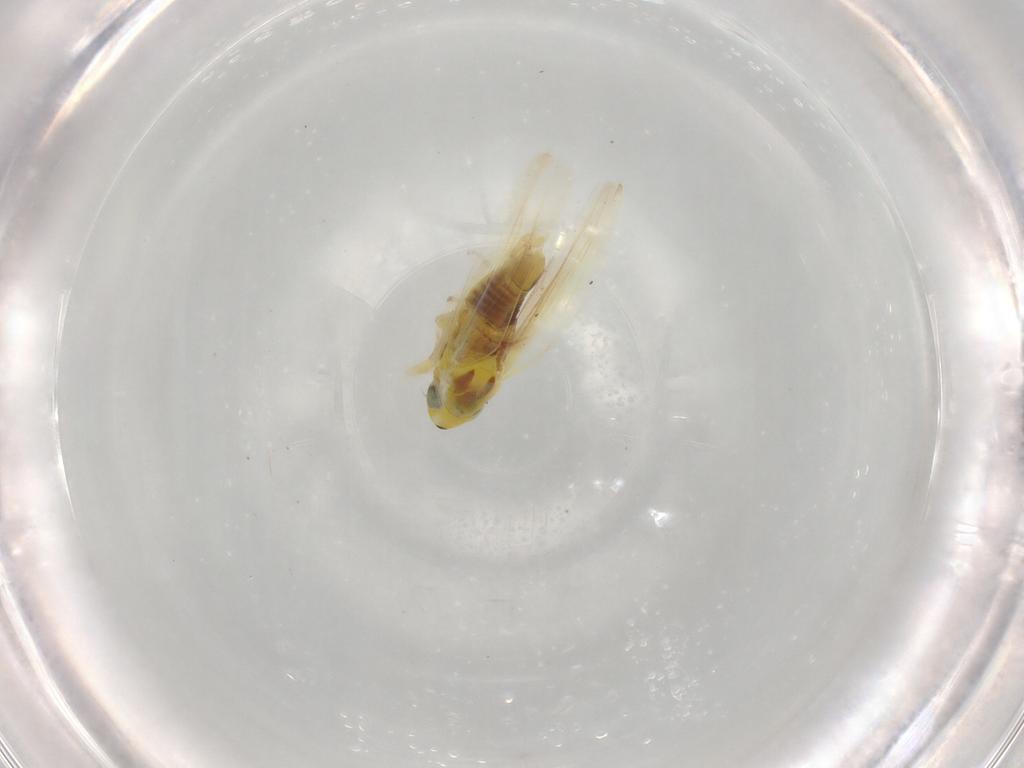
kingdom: Animalia
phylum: Arthropoda
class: Insecta
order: Hemiptera
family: Cicadellidae
